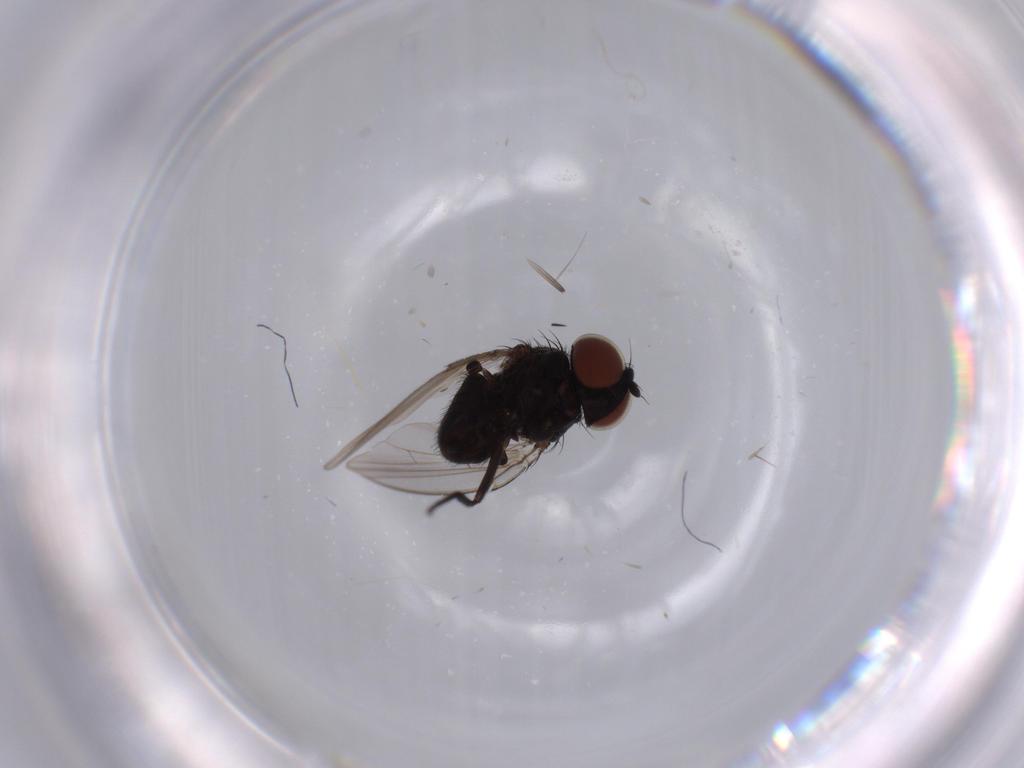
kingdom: Animalia
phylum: Arthropoda
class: Insecta
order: Diptera
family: Milichiidae
